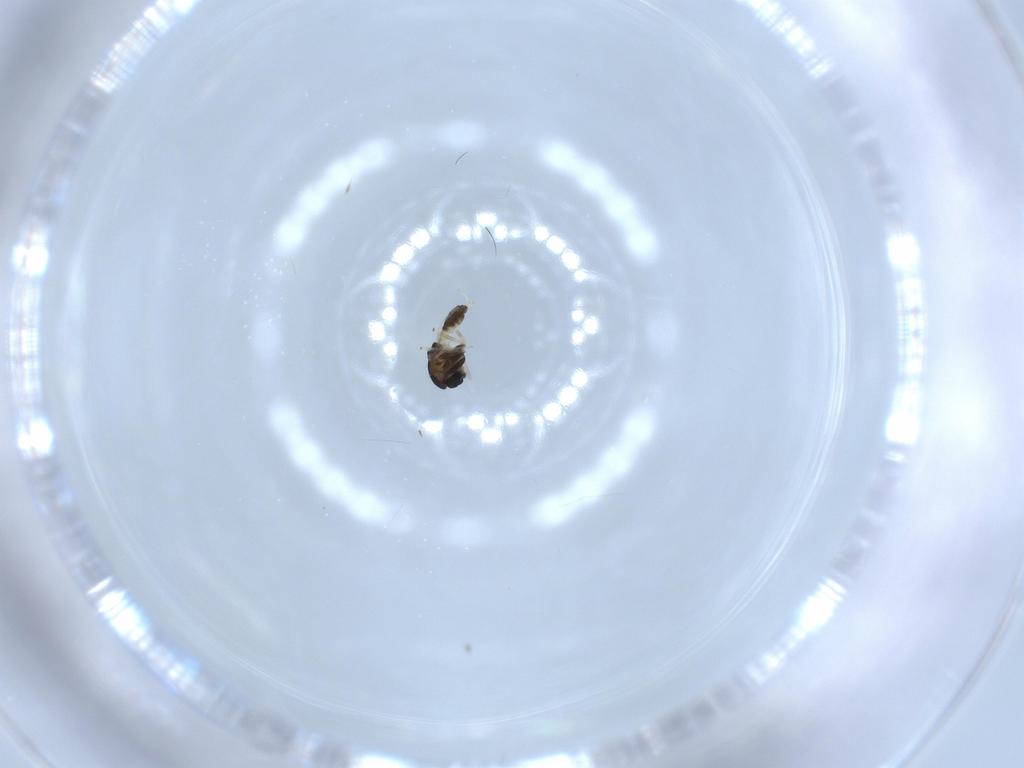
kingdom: Animalia
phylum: Arthropoda
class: Insecta
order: Diptera
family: Chironomidae
